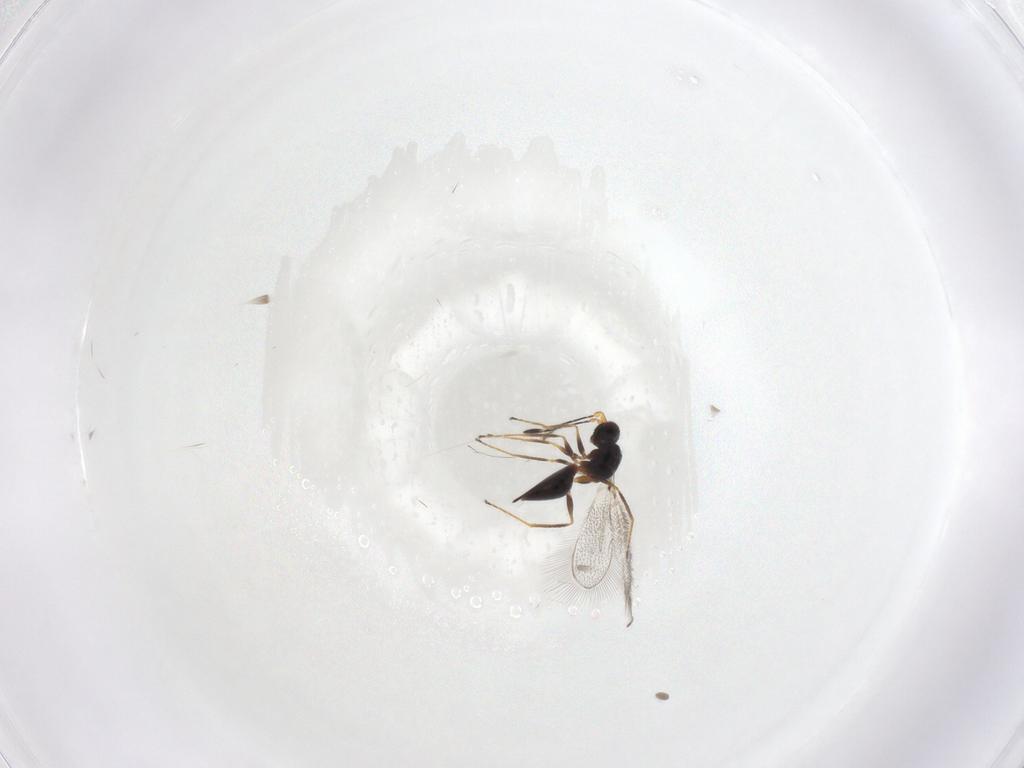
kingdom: Animalia
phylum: Arthropoda
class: Insecta
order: Hymenoptera
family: Mymaridae
